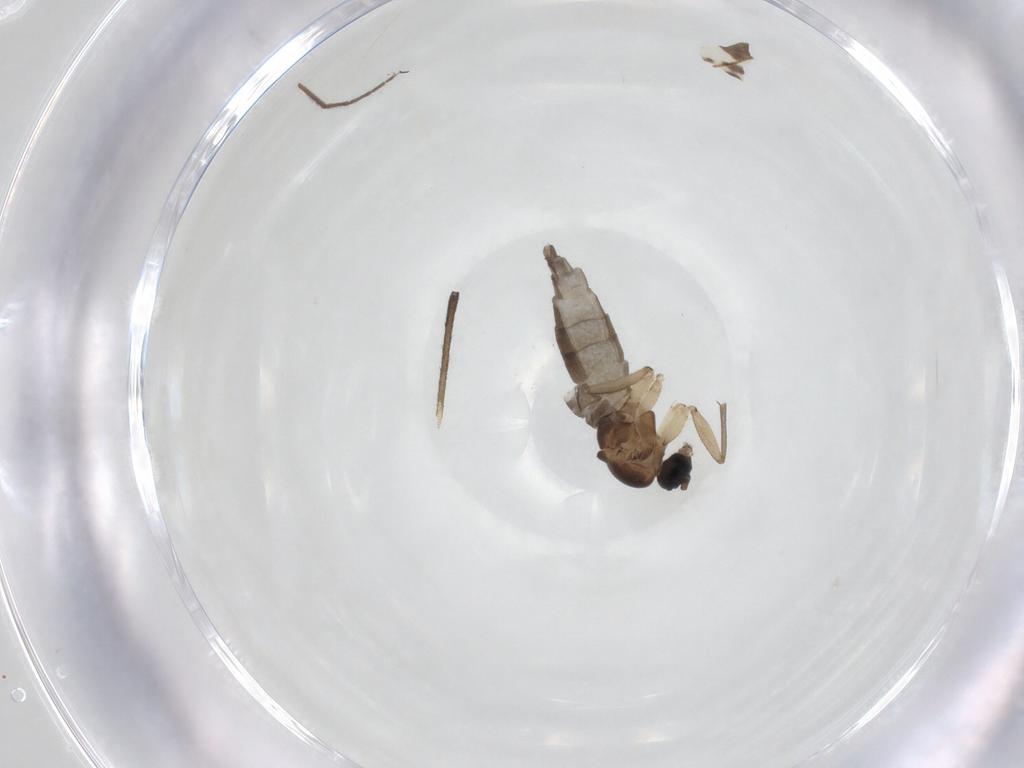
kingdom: Animalia
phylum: Arthropoda
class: Insecta
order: Diptera
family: Sciaridae
